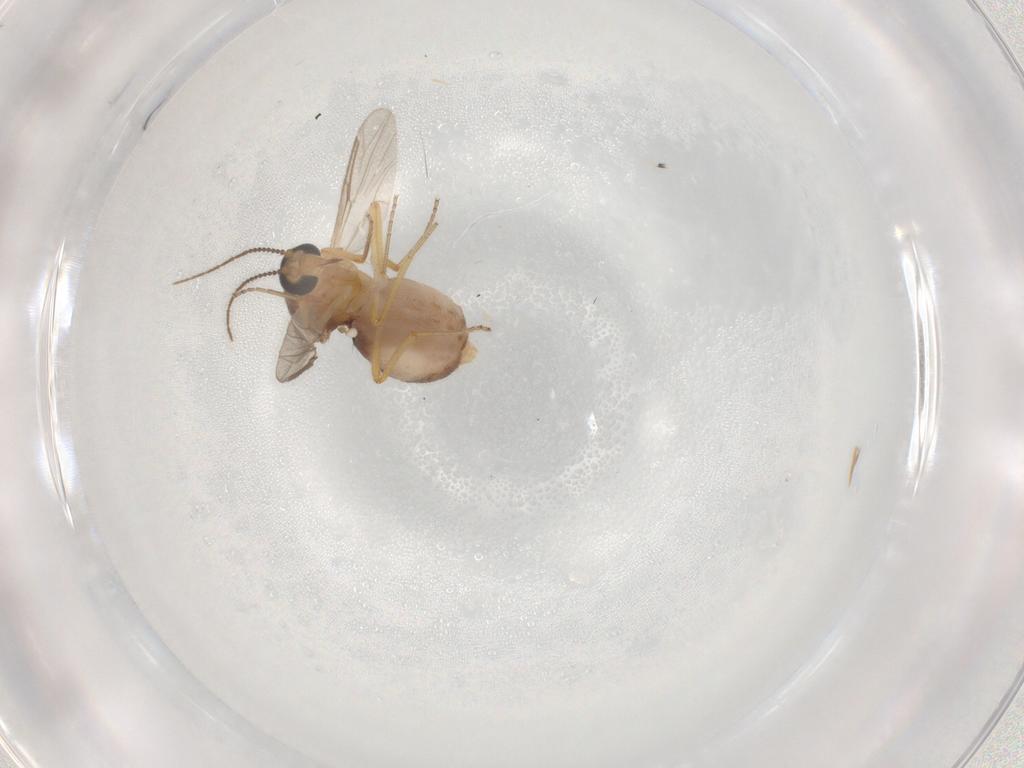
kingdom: Animalia
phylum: Arthropoda
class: Insecta
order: Diptera
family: Ceratopogonidae
